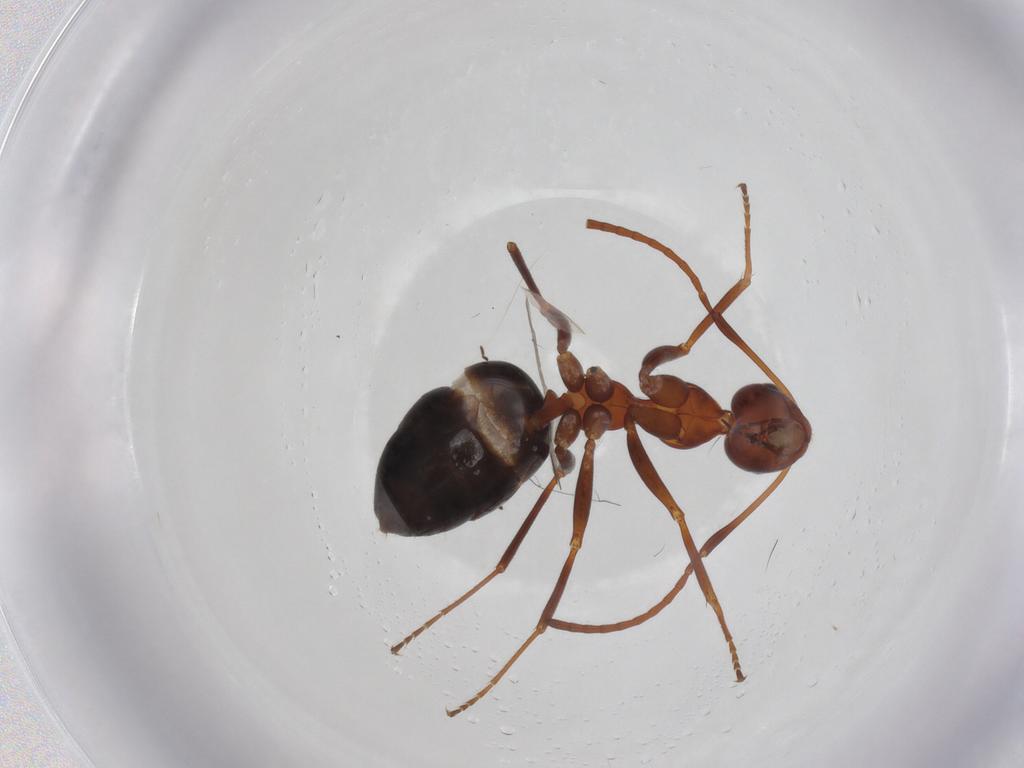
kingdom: Animalia
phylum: Arthropoda
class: Insecta
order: Hymenoptera
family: Formicidae
